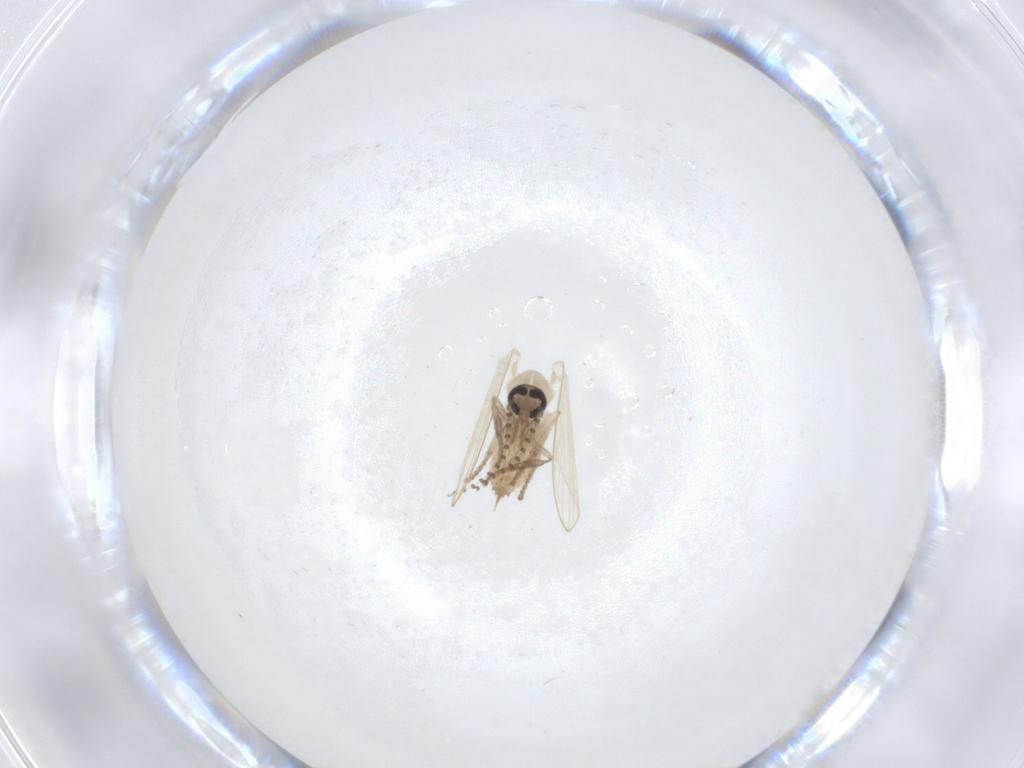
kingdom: Animalia
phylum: Arthropoda
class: Insecta
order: Diptera
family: Psychodidae
